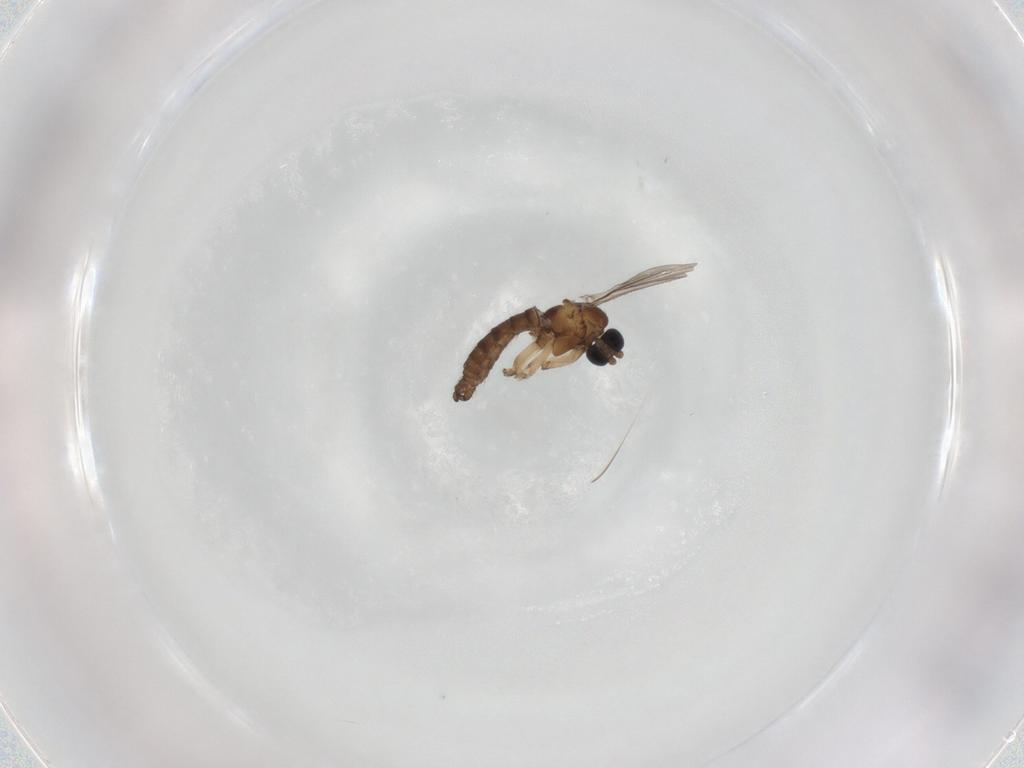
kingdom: Animalia
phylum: Arthropoda
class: Insecta
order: Diptera
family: Sciaridae
